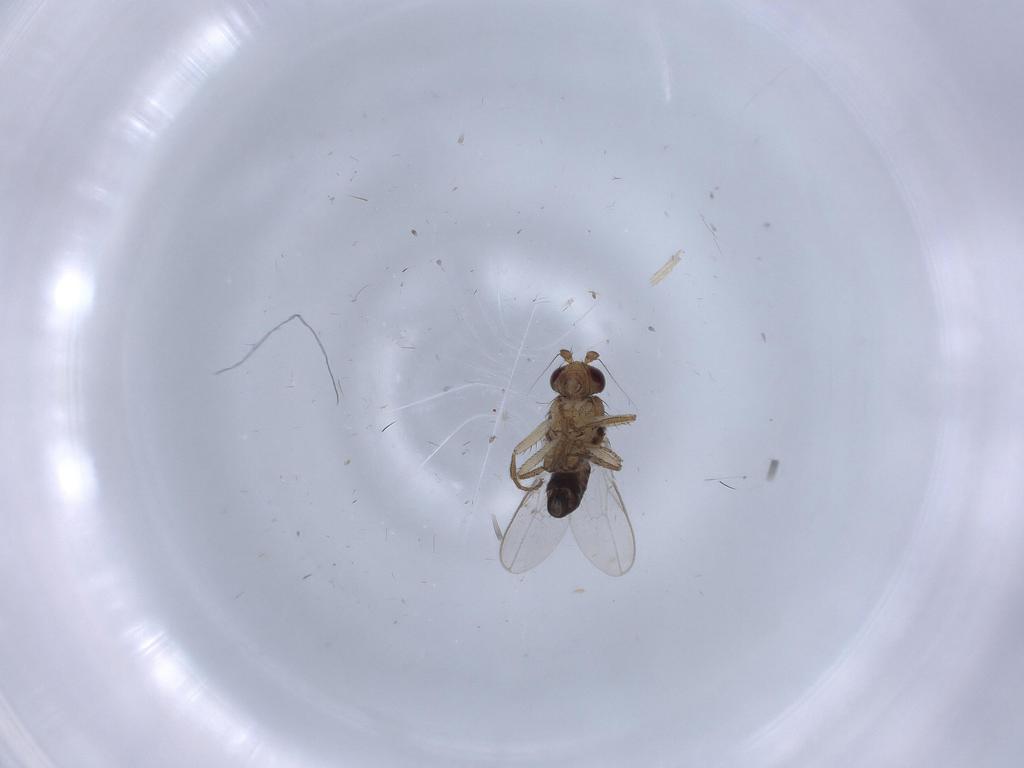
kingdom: Animalia
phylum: Arthropoda
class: Insecta
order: Diptera
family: Sphaeroceridae
